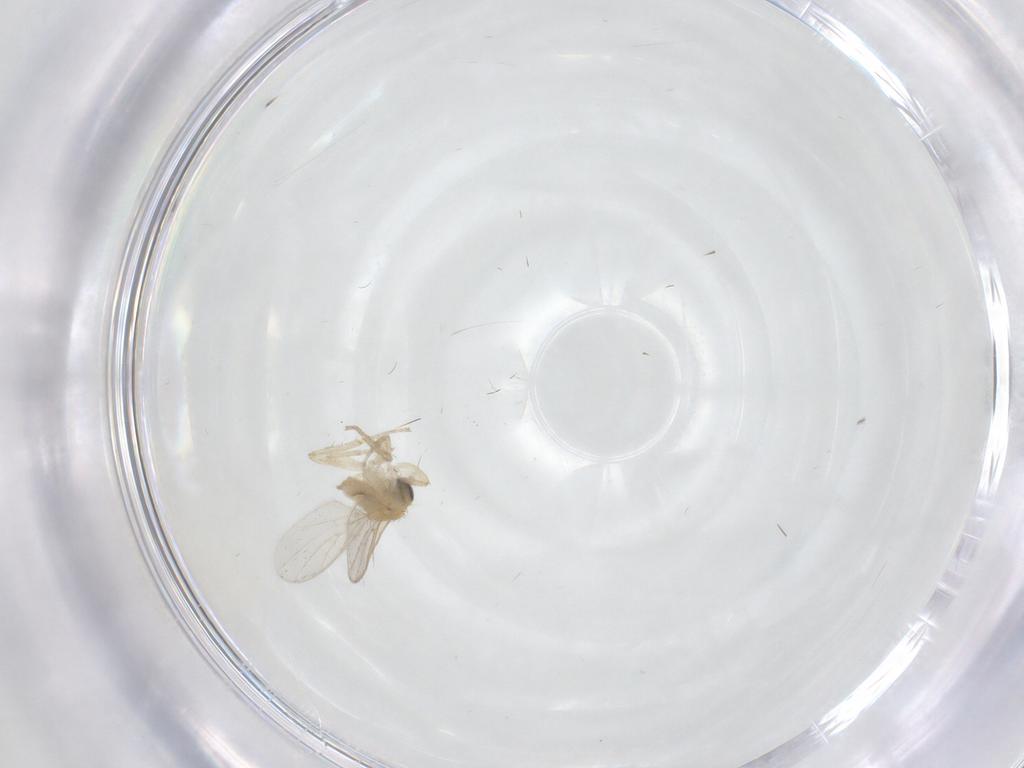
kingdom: Animalia
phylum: Arthropoda
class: Insecta
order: Diptera
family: Hybotidae
